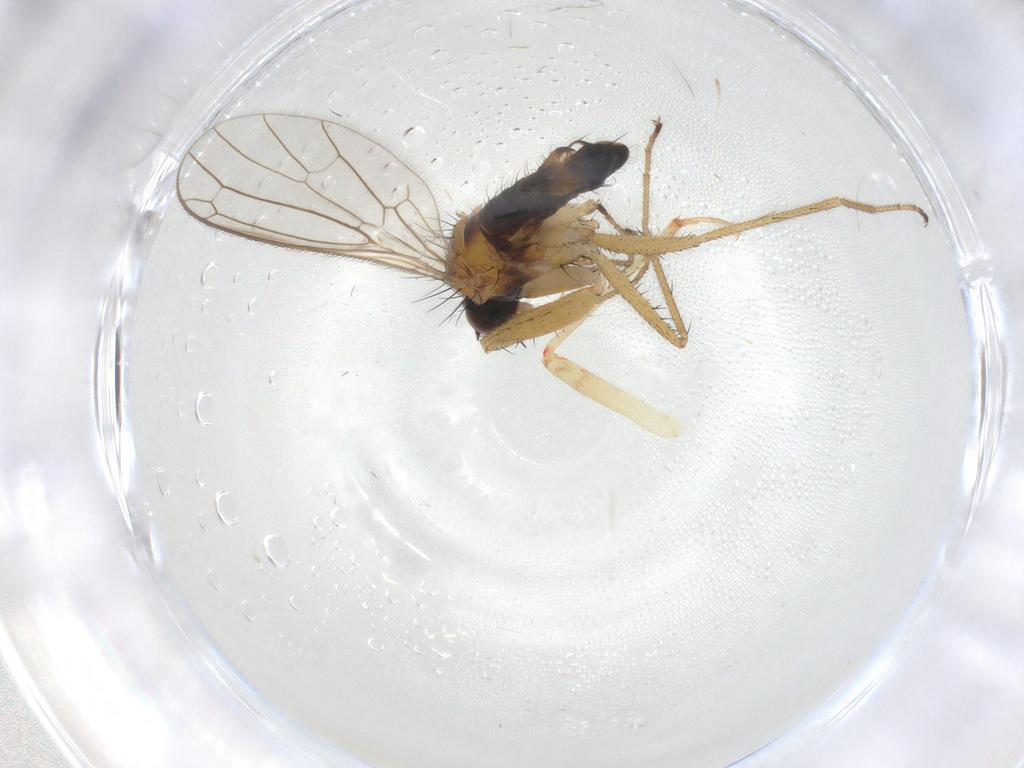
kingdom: Animalia
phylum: Arthropoda
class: Insecta
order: Diptera
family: Empididae
